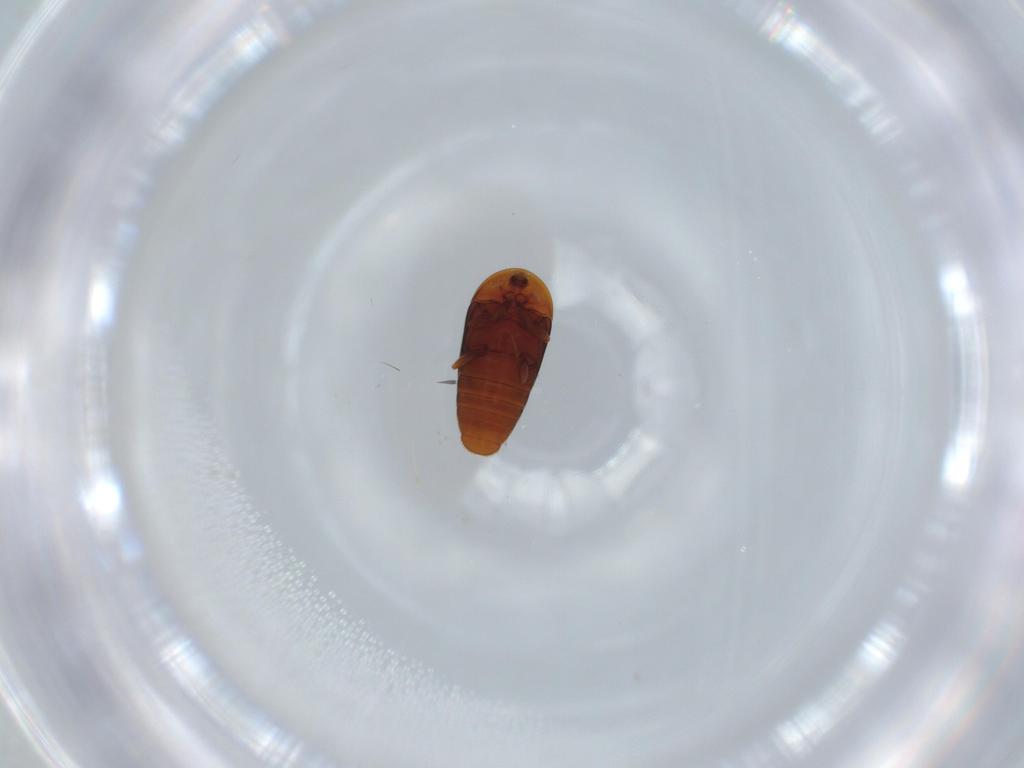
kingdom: Animalia
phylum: Arthropoda
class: Insecta
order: Coleoptera
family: Corylophidae
